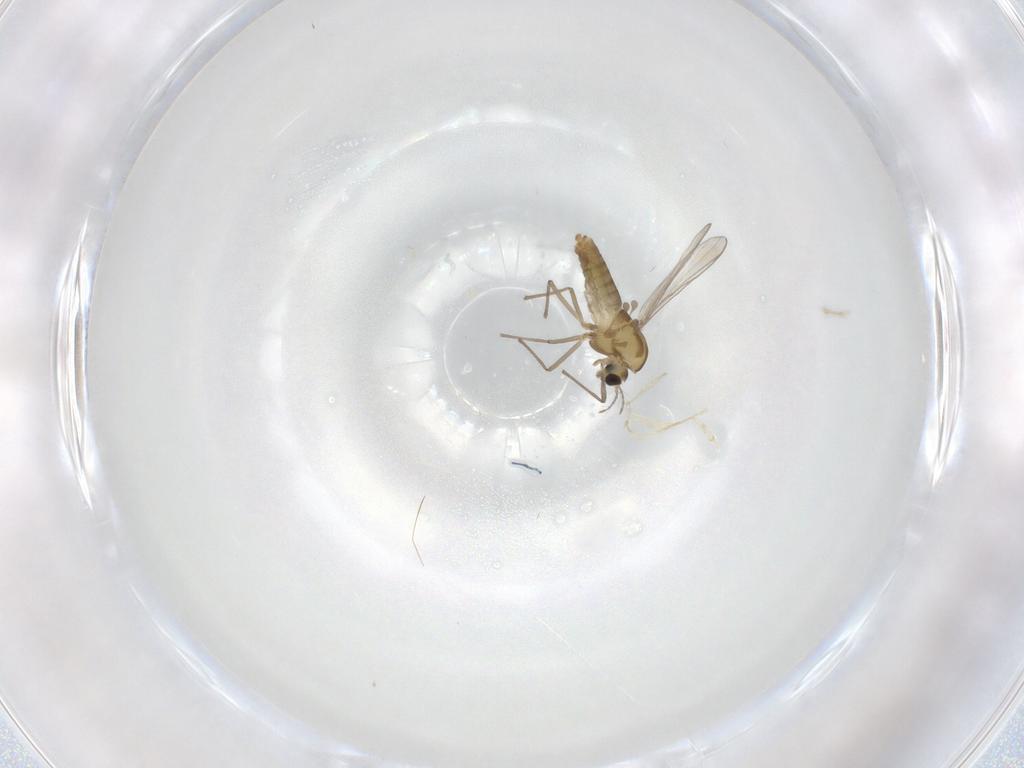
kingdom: Animalia
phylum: Arthropoda
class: Insecta
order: Diptera
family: Chironomidae
